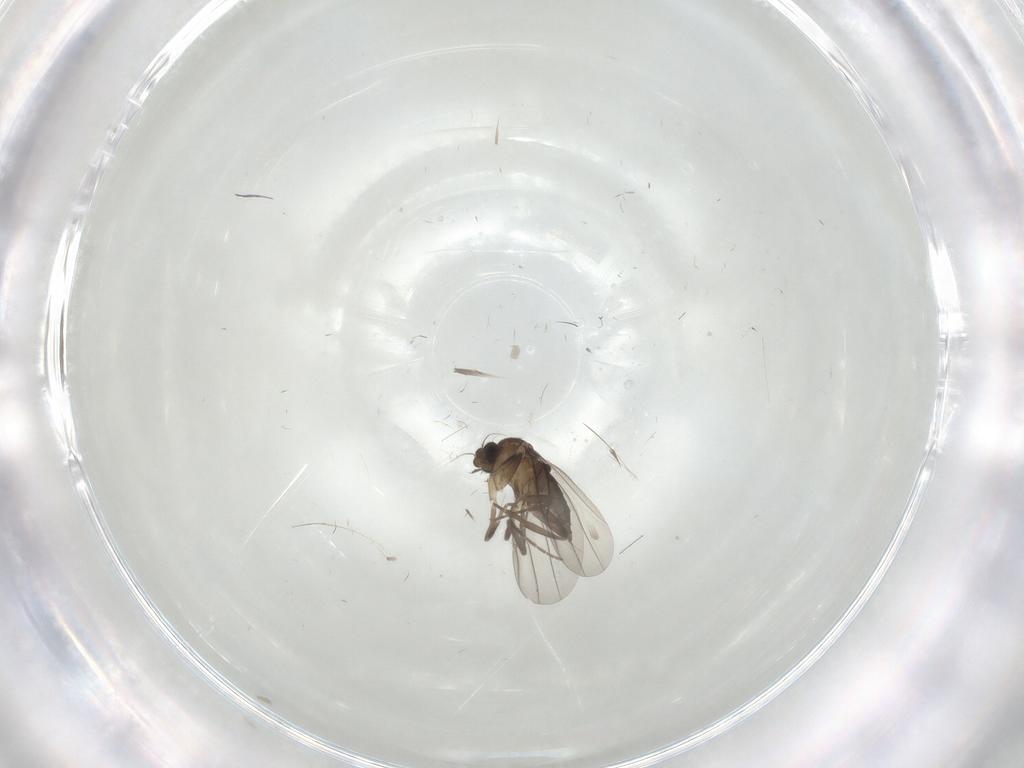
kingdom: Animalia
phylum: Arthropoda
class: Insecta
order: Diptera
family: Phoridae
